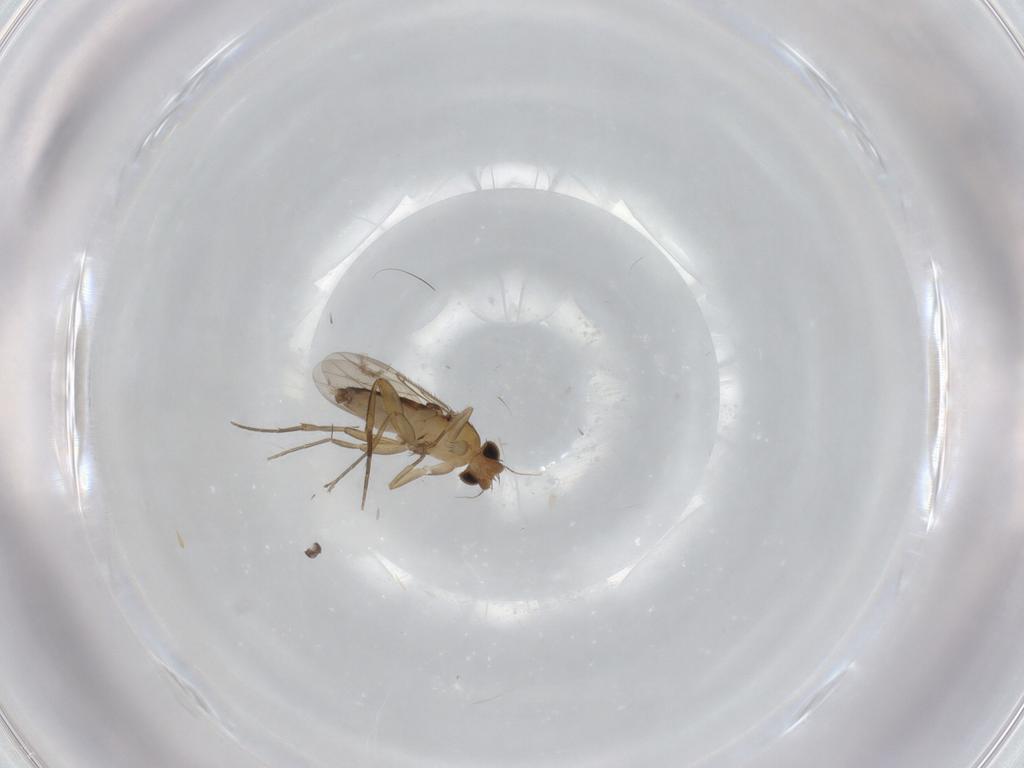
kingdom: Animalia
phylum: Arthropoda
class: Insecta
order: Diptera
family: Phoridae
